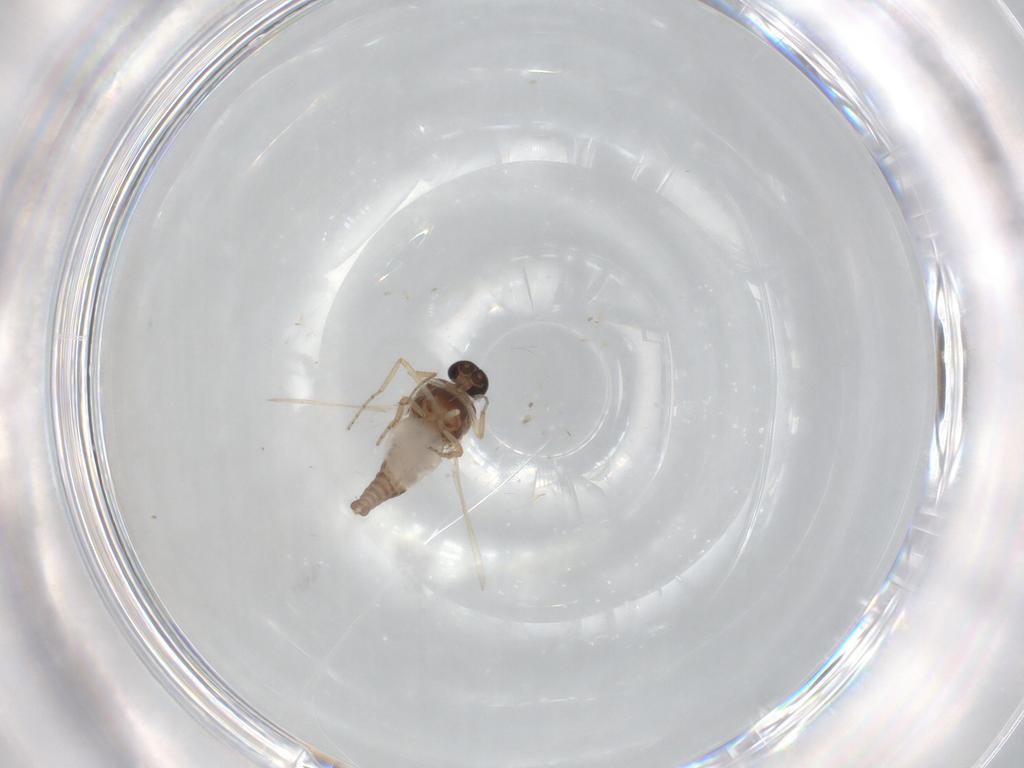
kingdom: Animalia
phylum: Arthropoda
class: Insecta
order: Diptera
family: Ceratopogonidae
